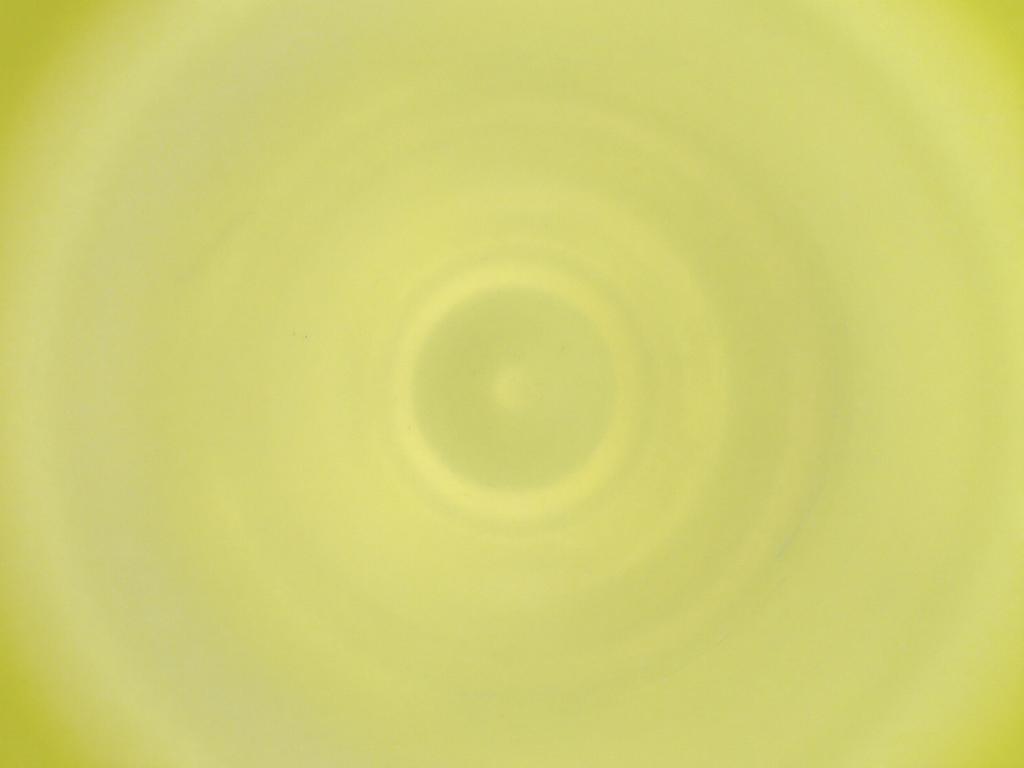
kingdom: Animalia
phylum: Arthropoda
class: Insecta
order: Diptera
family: Cecidomyiidae
